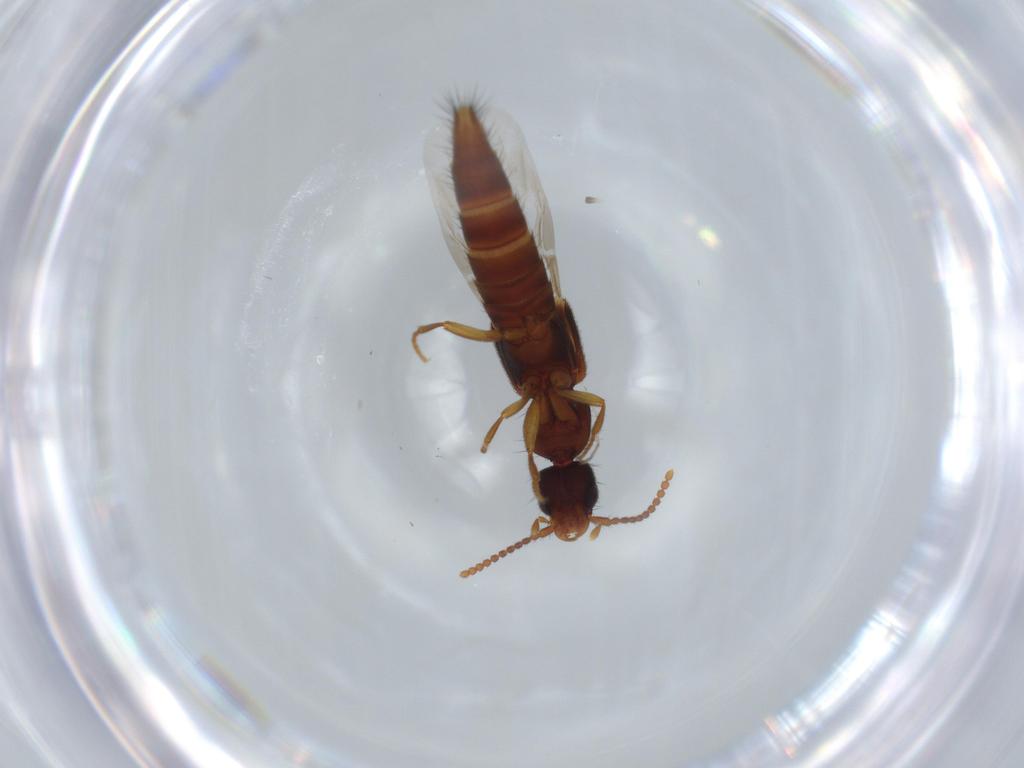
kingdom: Animalia
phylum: Arthropoda
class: Insecta
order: Coleoptera
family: Staphylinidae
